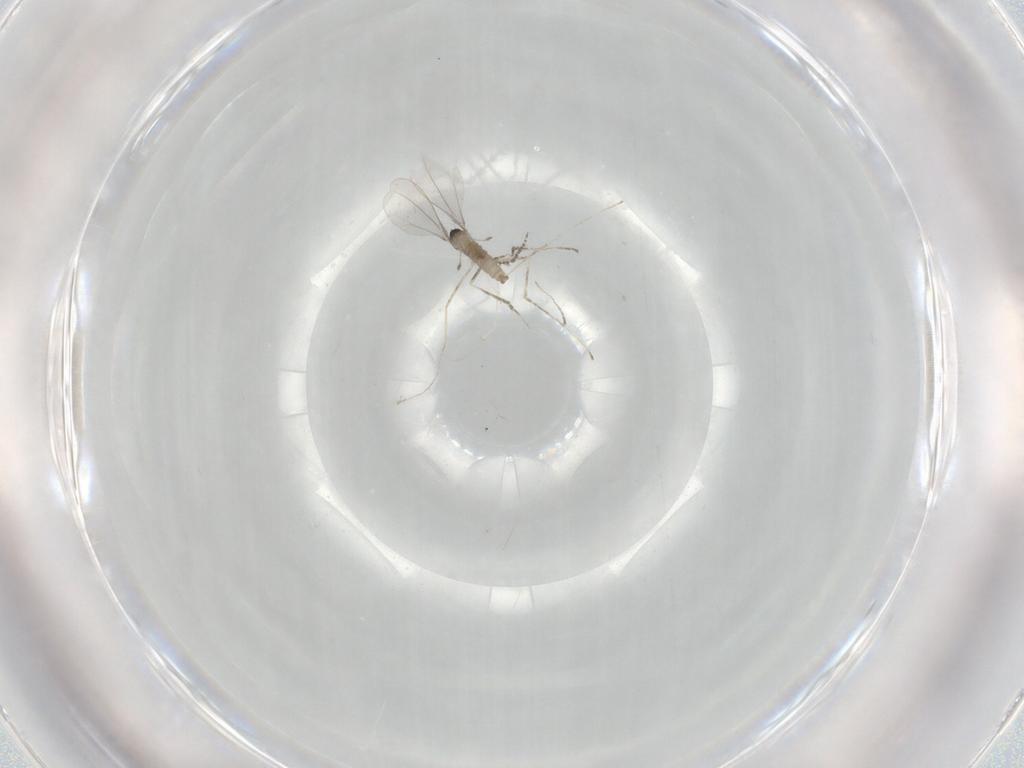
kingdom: Animalia
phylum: Arthropoda
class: Insecta
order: Diptera
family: Cecidomyiidae
